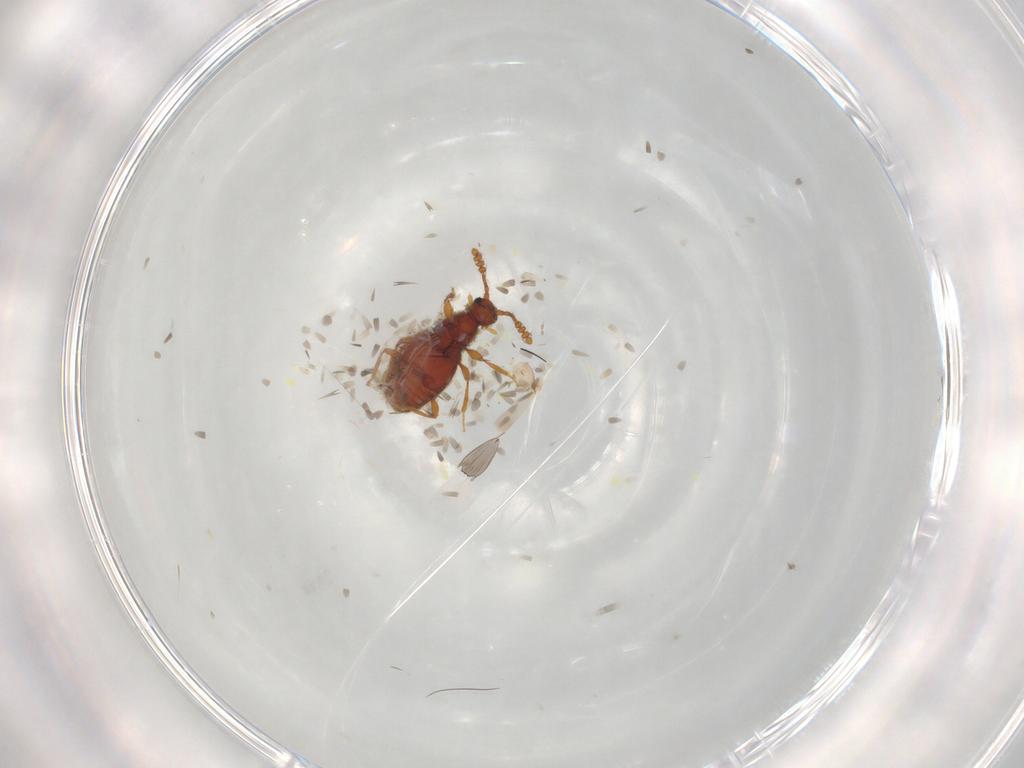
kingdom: Animalia
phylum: Arthropoda
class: Insecta
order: Coleoptera
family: Staphylinidae
